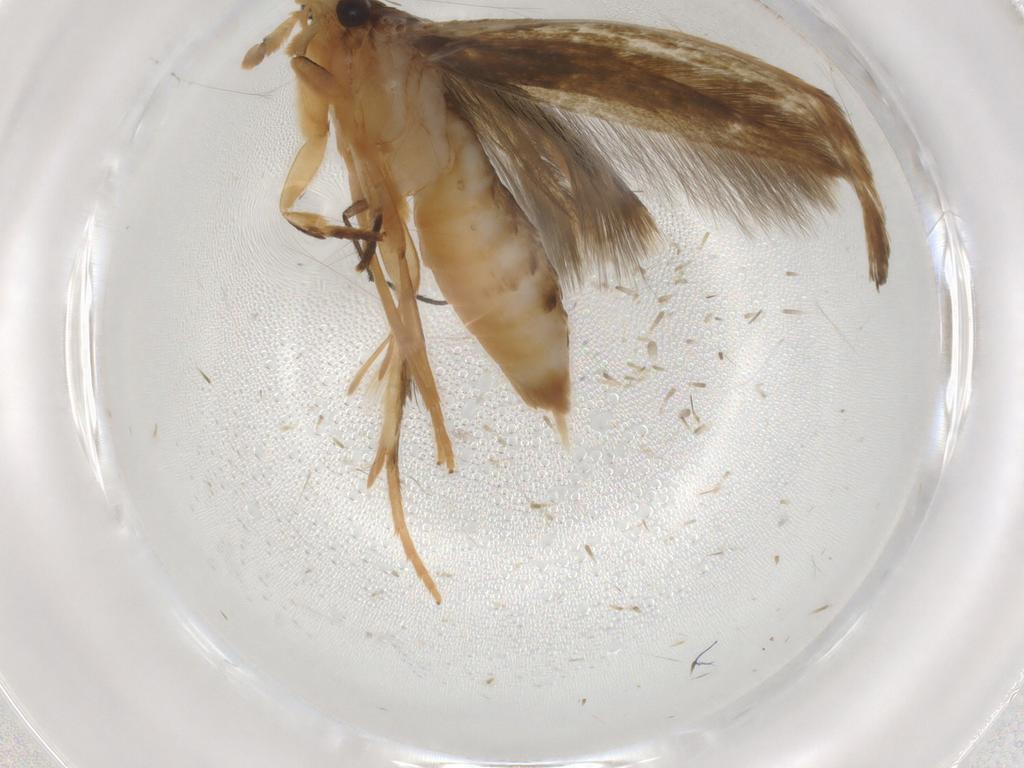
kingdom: Animalia
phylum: Arthropoda
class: Insecta
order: Lepidoptera
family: Tineidae
